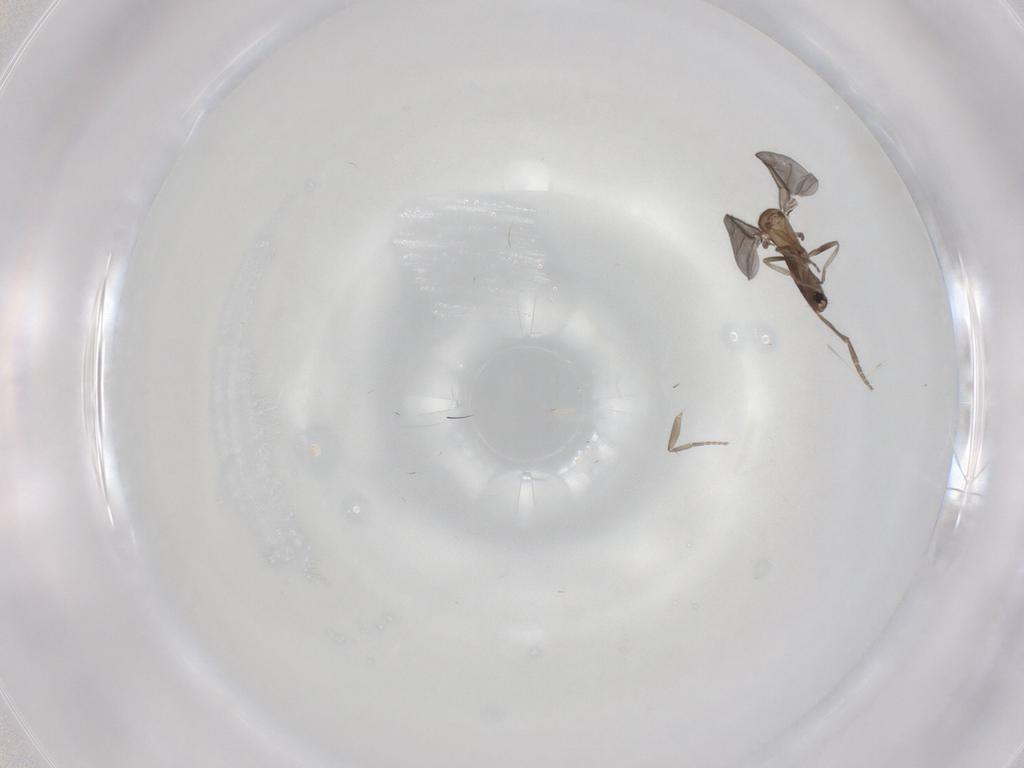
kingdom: Animalia
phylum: Arthropoda
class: Insecta
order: Diptera
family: Phoridae
